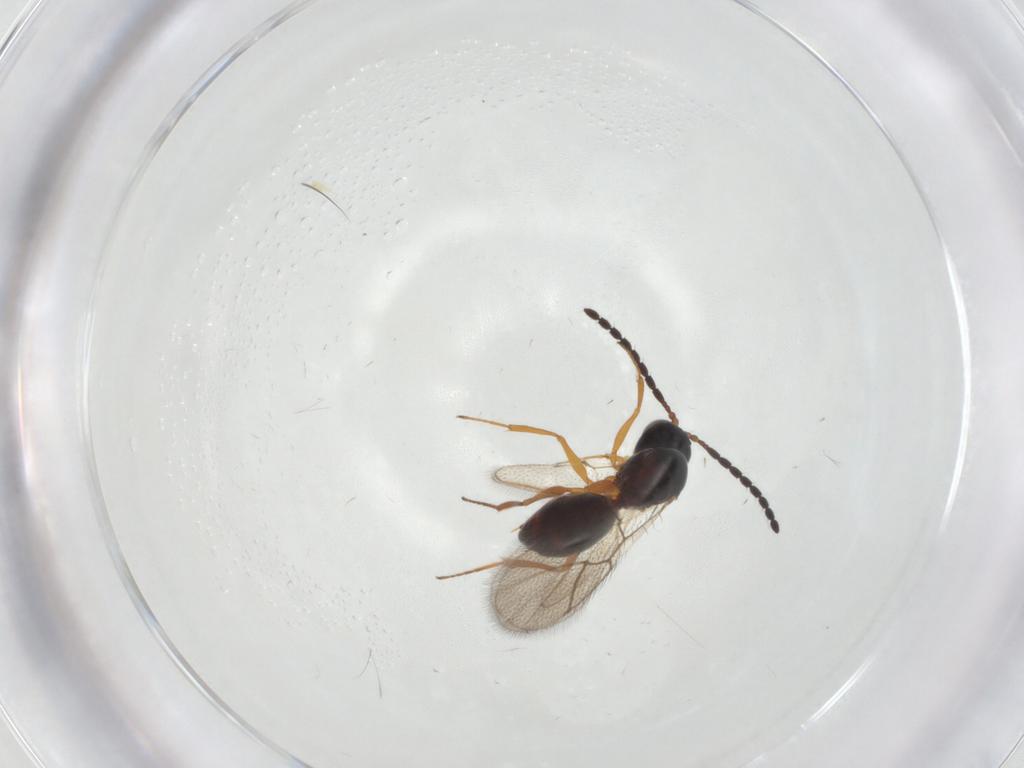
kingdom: Animalia
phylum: Arthropoda
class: Insecta
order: Hymenoptera
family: Figitidae
